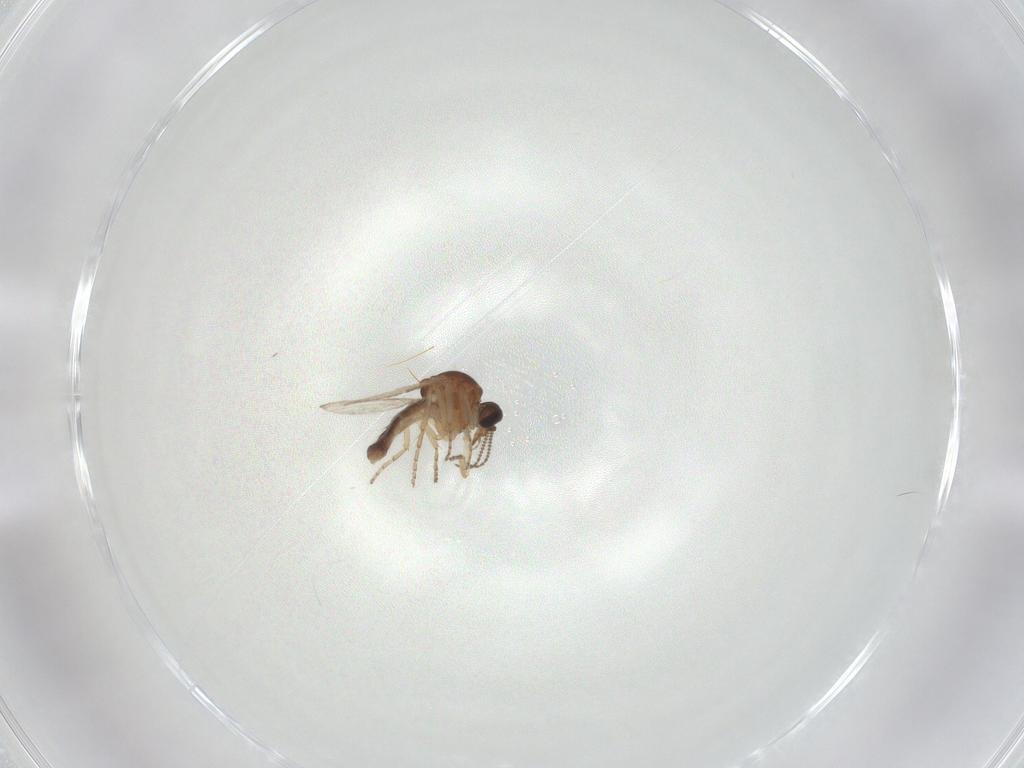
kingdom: Animalia
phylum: Arthropoda
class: Insecta
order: Diptera
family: Ceratopogonidae
